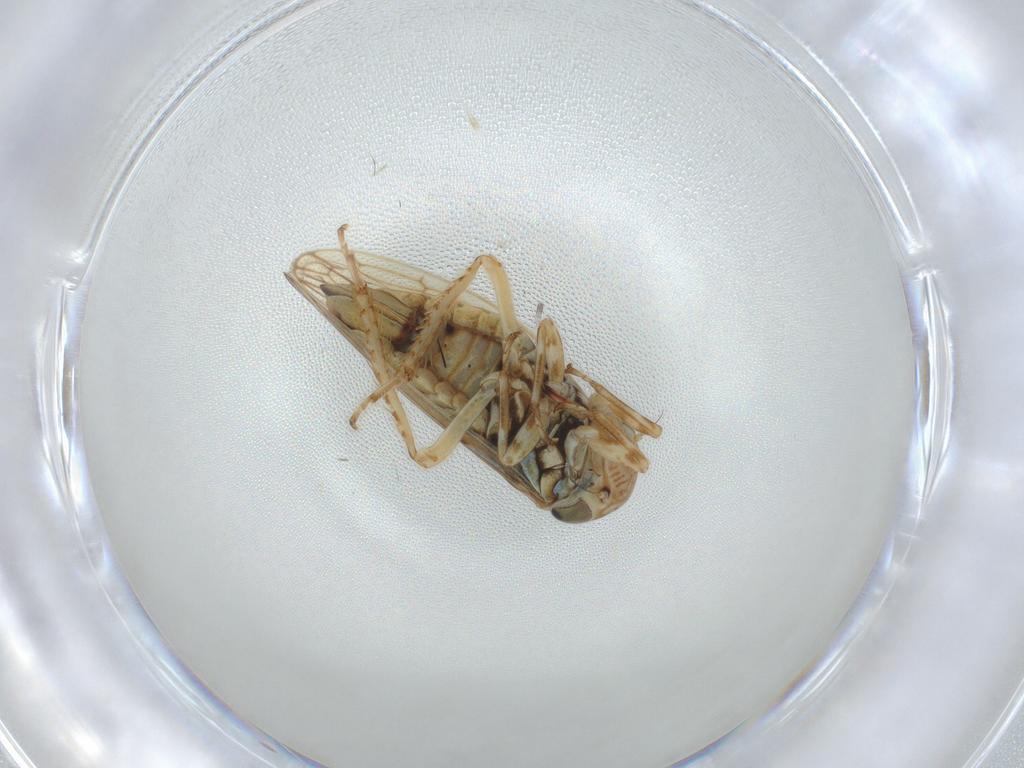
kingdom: Animalia
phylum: Arthropoda
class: Insecta
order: Hemiptera
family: Cicadellidae
